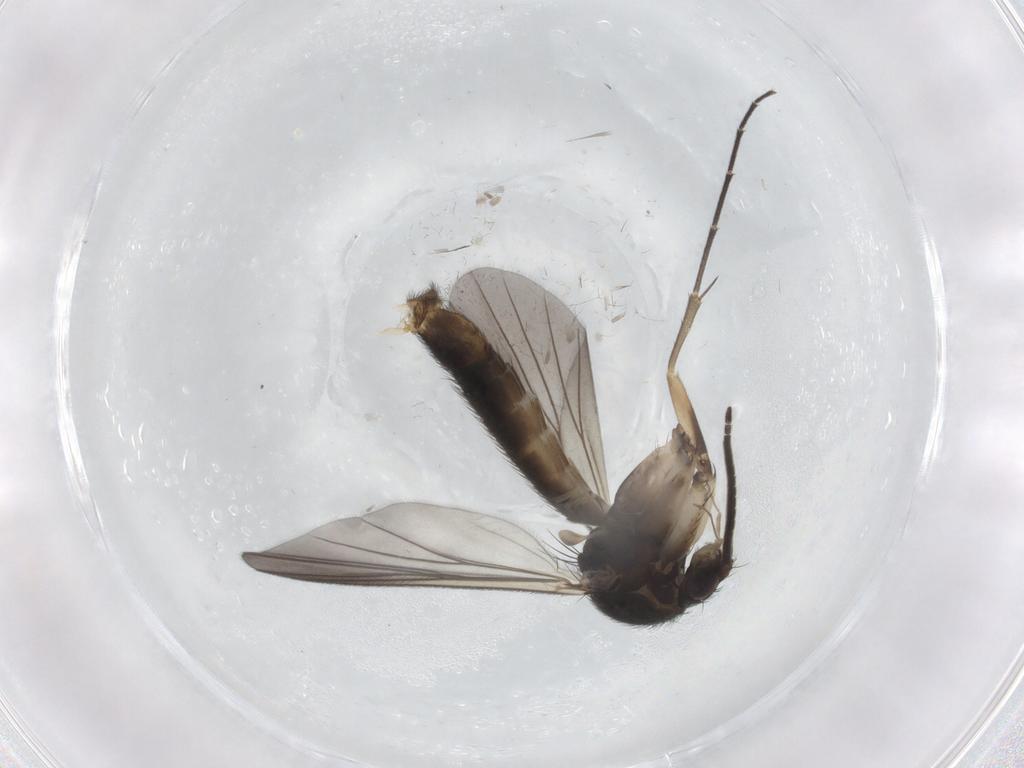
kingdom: Animalia
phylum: Arthropoda
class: Insecta
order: Diptera
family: Mycetophilidae
